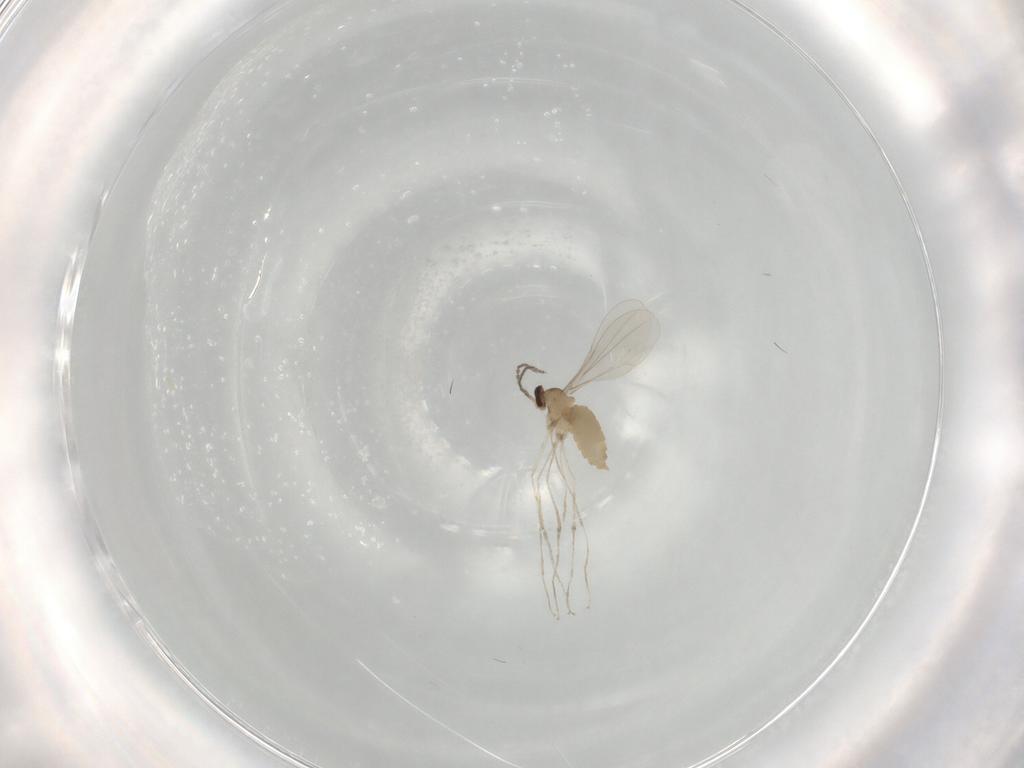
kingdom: Animalia
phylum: Arthropoda
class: Insecta
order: Diptera
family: Cecidomyiidae
